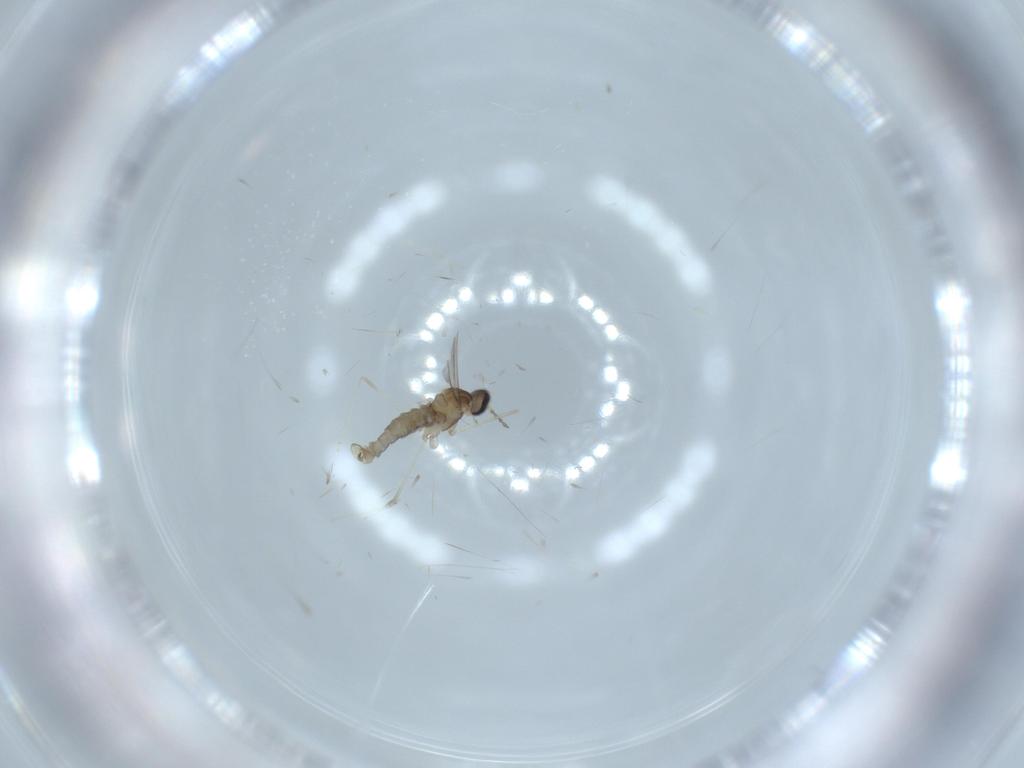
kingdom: Animalia
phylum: Arthropoda
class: Insecta
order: Diptera
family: Cecidomyiidae
